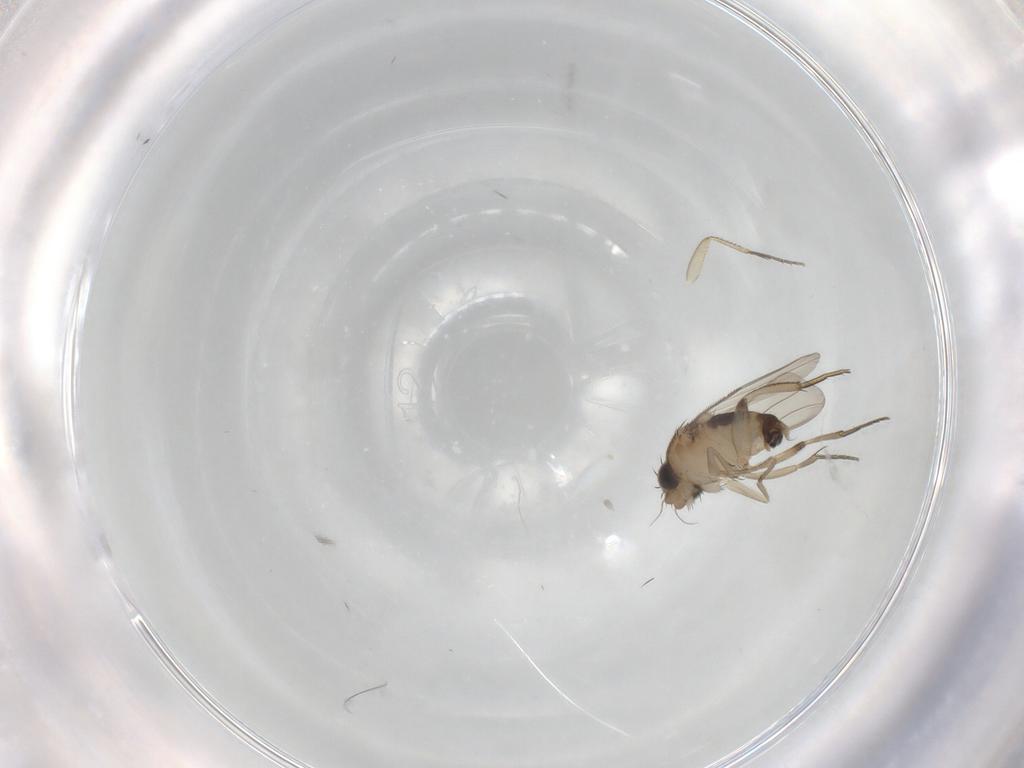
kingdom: Animalia
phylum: Arthropoda
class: Insecta
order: Diptera
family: Phoridae
